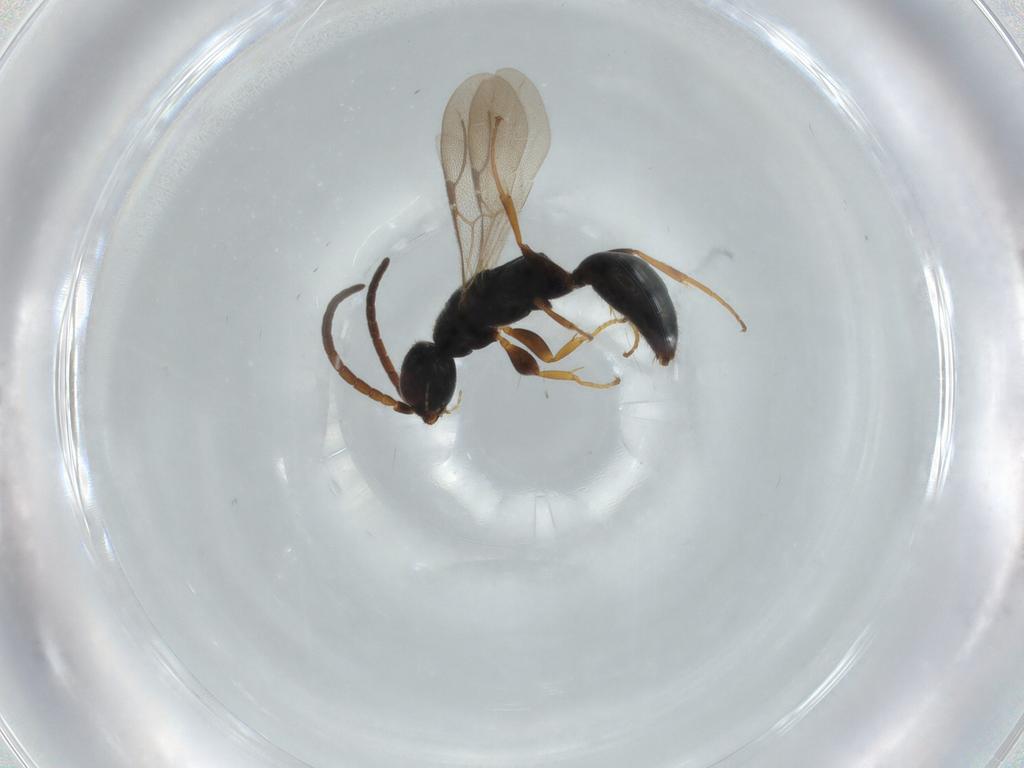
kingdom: Animalia
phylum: Arthropoda
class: Insecta
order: Hymenoptera
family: Bethylidae
